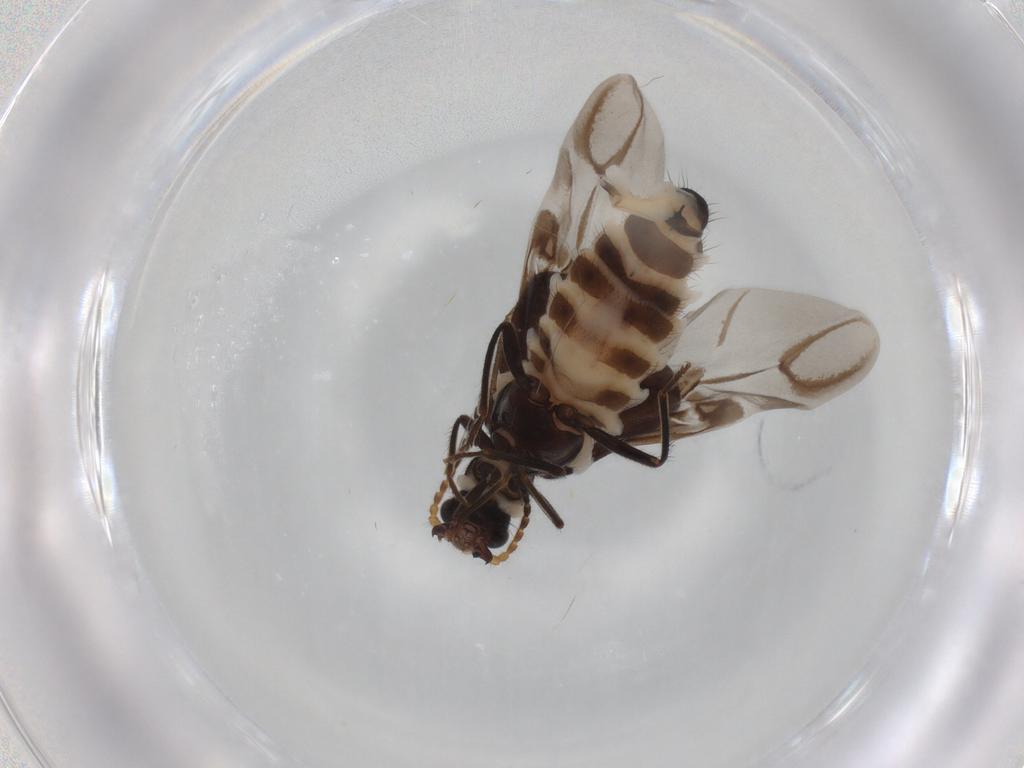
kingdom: Animalia
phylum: Arthropoda
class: Insecta
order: Coleoptera
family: Melyridae
